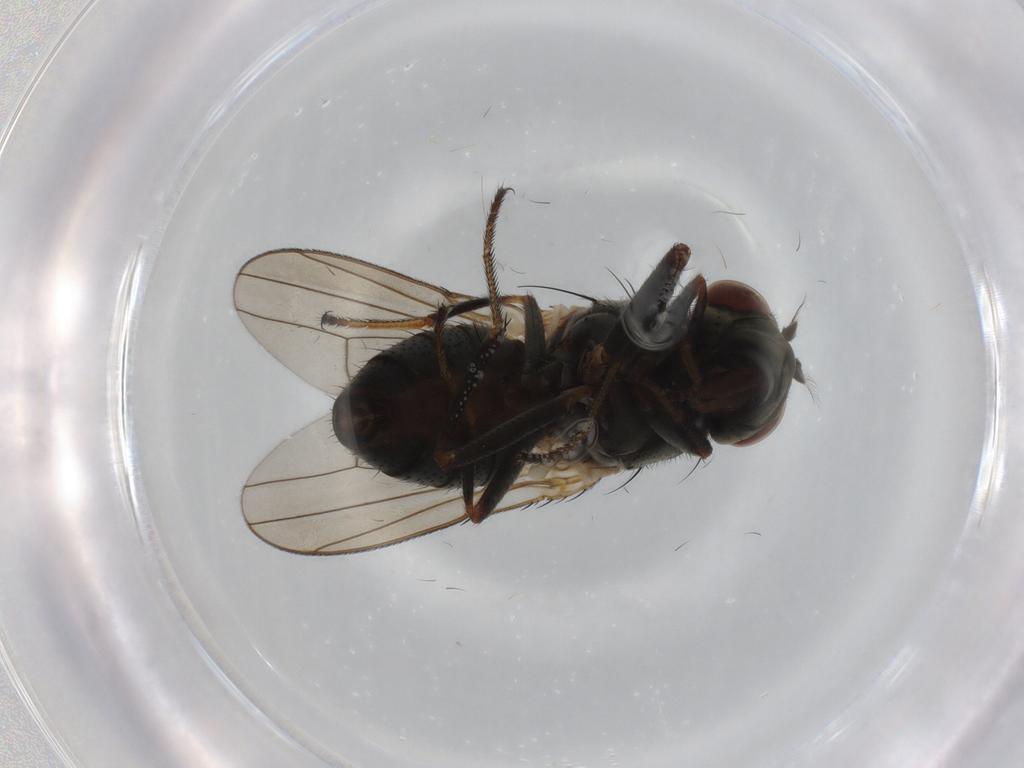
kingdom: Animalia
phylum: Arthropoda
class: Insecta
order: Diptera
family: Ephydridae
